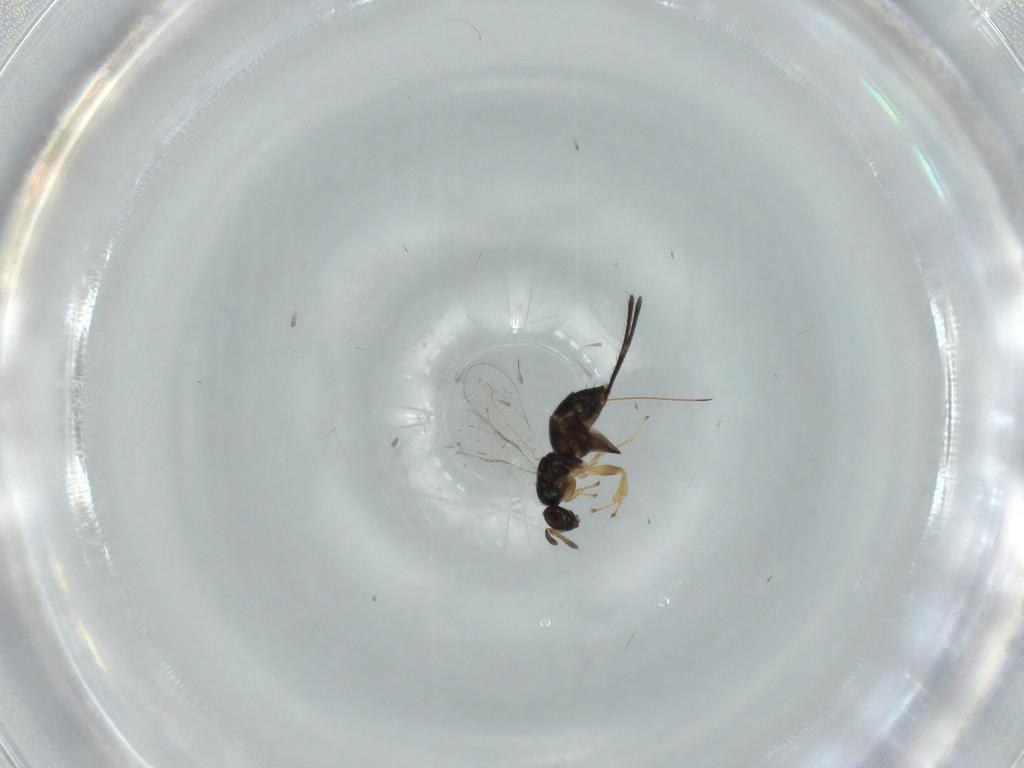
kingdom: Animalia
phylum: Arthropoda
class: Insecta
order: Hymenoptera
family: Torymidae
